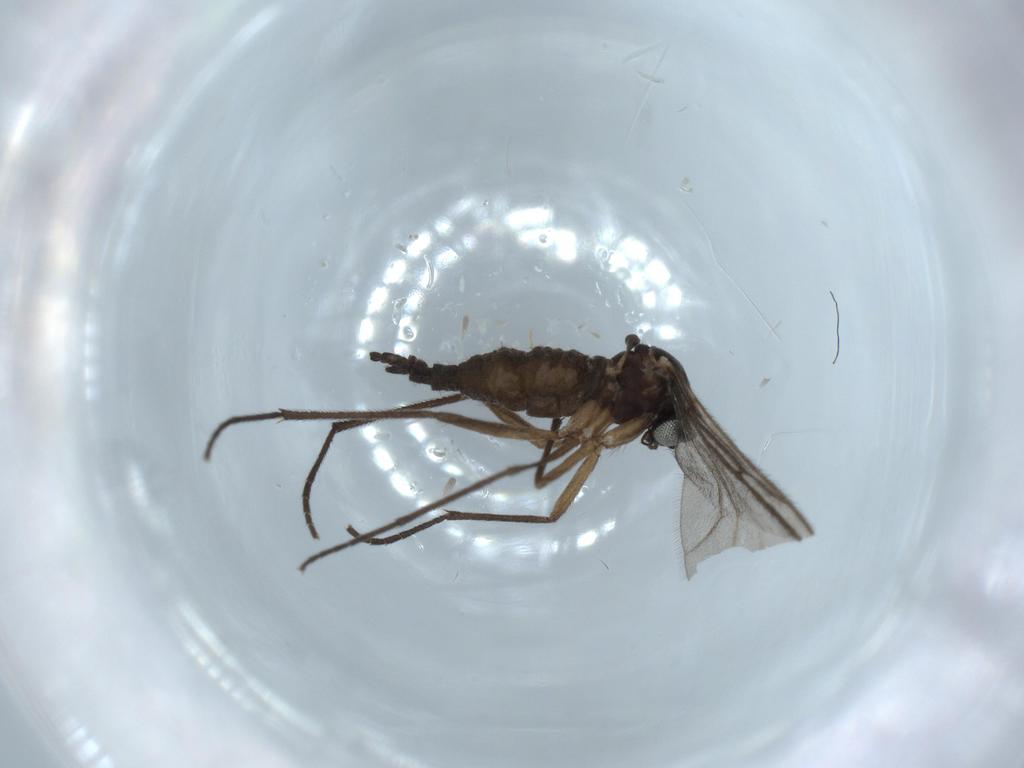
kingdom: Animalia
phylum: Arthropoda
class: Insecta
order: Diptera
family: Sciaridae
